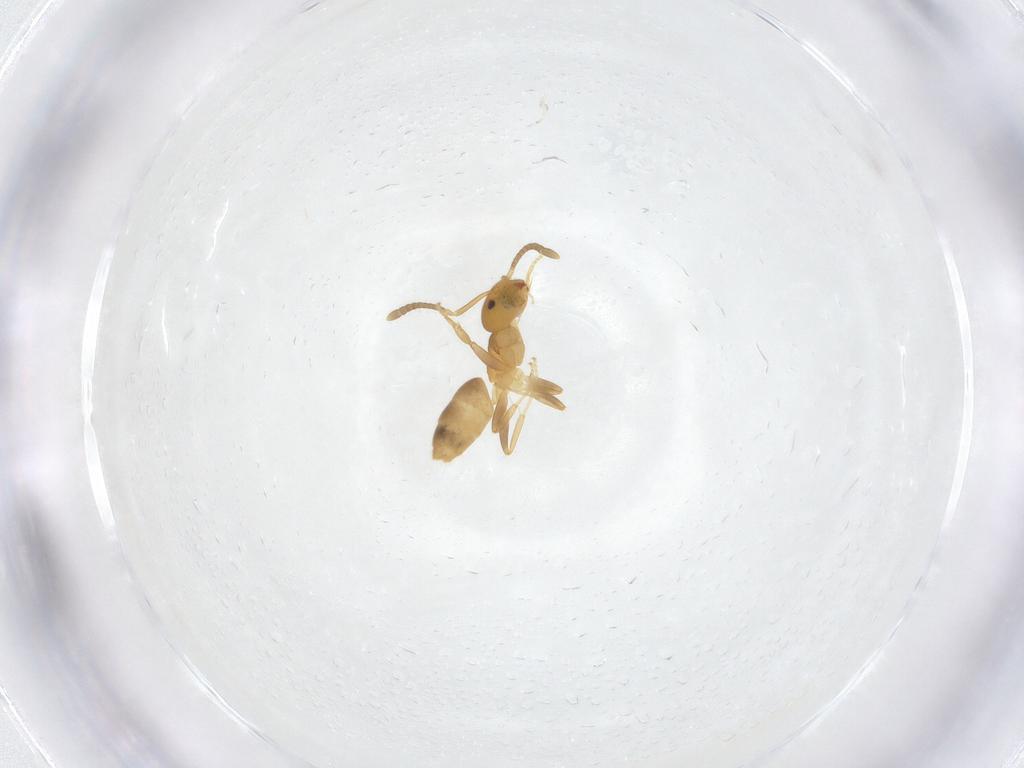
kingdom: Animalia
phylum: Arthropoda
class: Insecta
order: Hymenoptera
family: Formicidae
